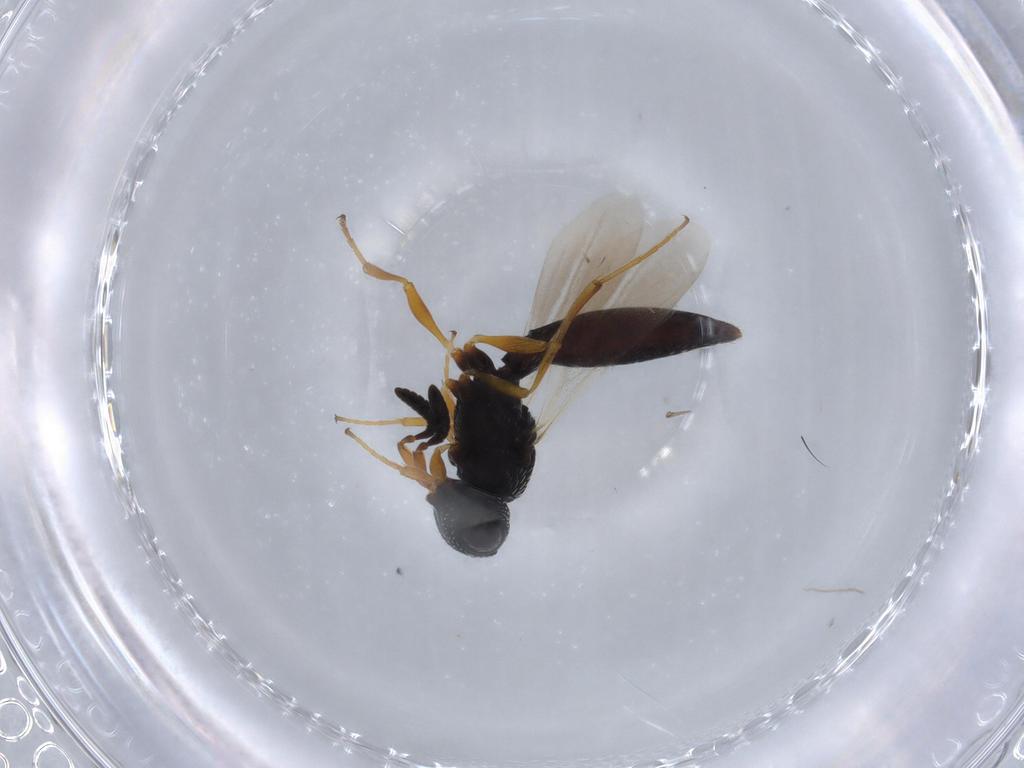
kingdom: Animalia
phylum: Arthropoda
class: Insecta
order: Hymenoptera
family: Scelionidae
